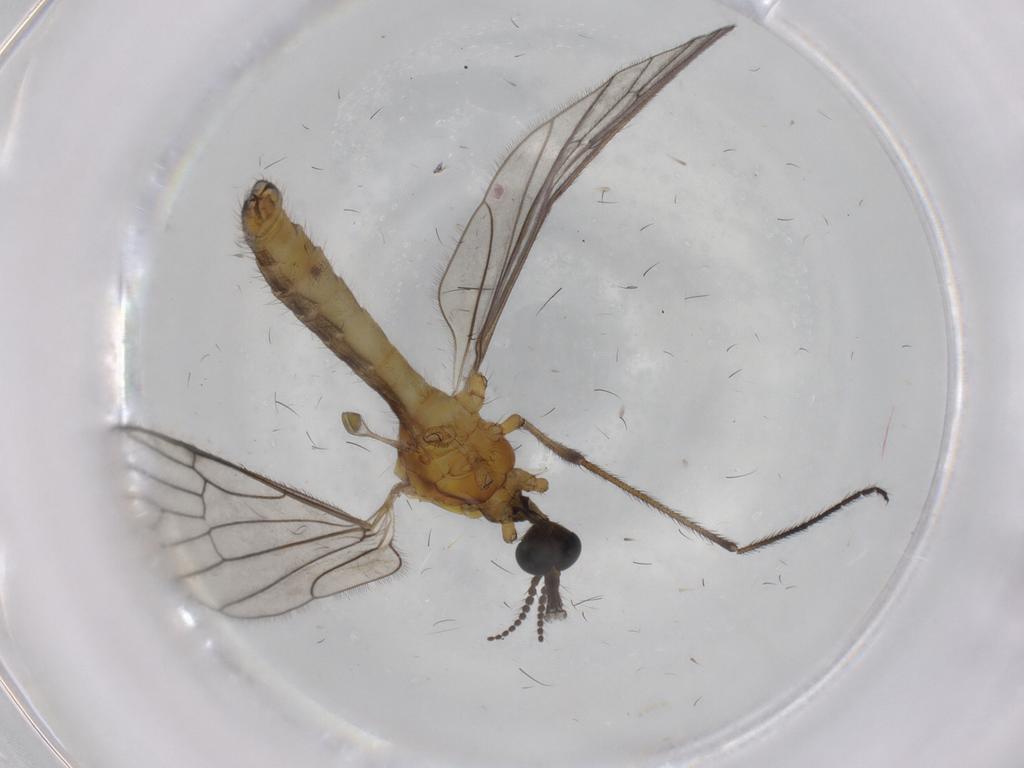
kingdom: Animalia
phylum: Arthropoda
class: Insecta
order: Diptera
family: Limoniidae
